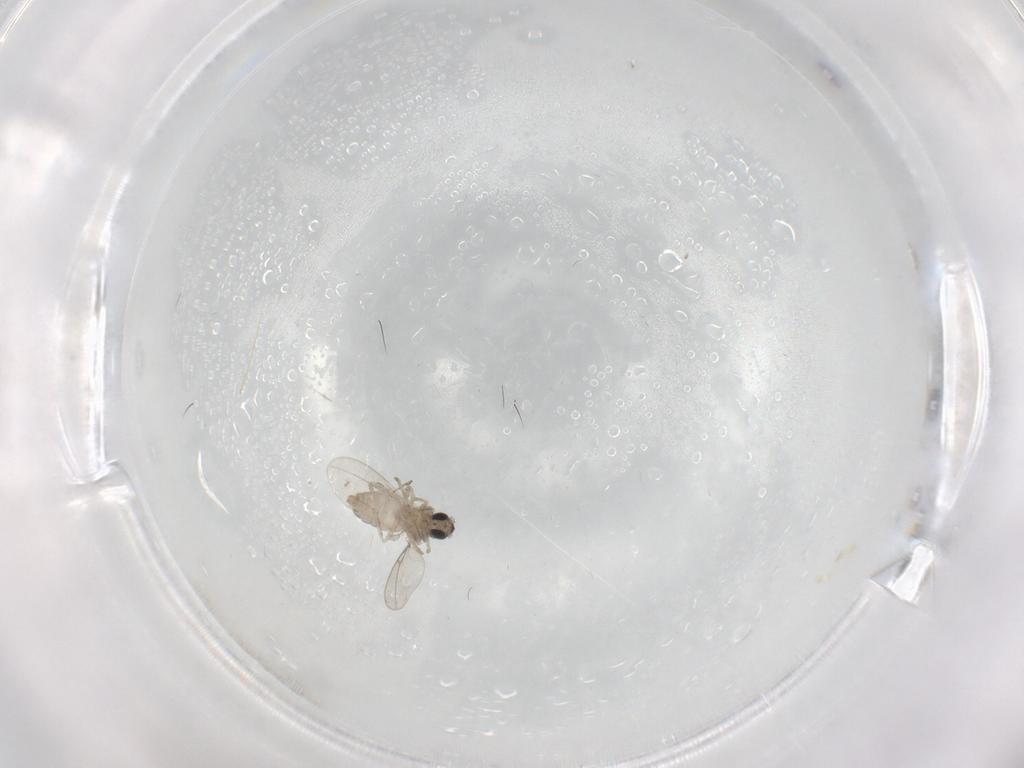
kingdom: Animalia
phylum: Arthropoda
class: Insecta
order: Diptera
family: Cecidomyiidae
